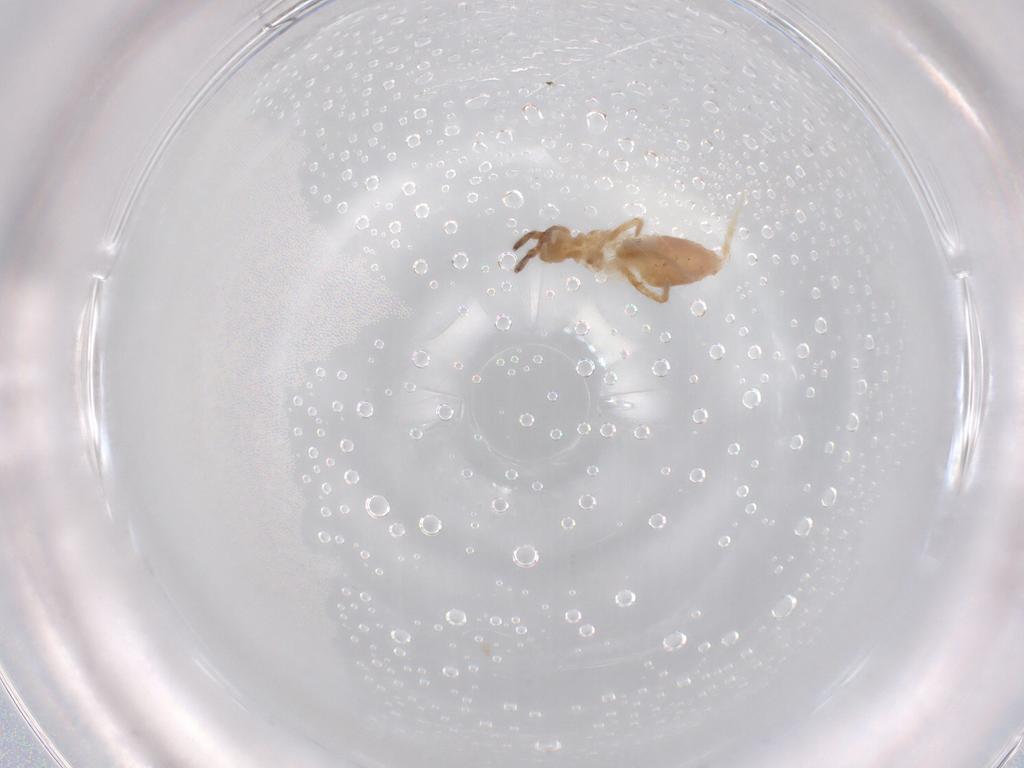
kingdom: Animalia
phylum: Arthropoda
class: Collembola
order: Entomobryomorpha
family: Entomobryidae
